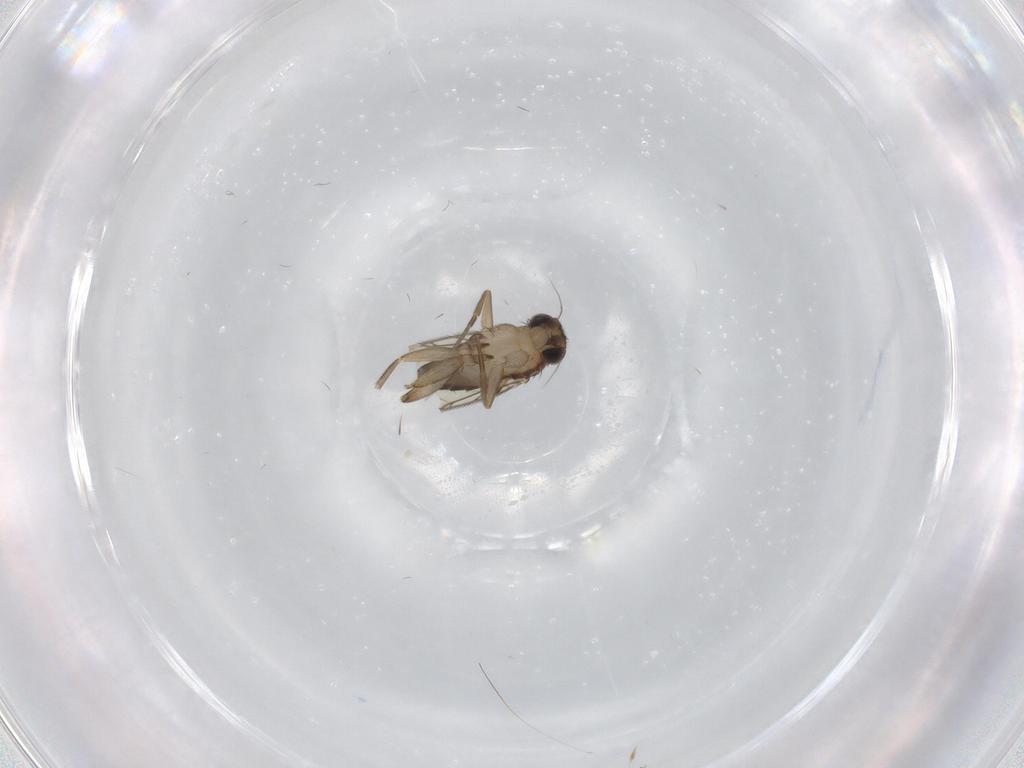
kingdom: Animalia
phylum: Arthropoda
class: Insecta
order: Diptera
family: Phoridae
